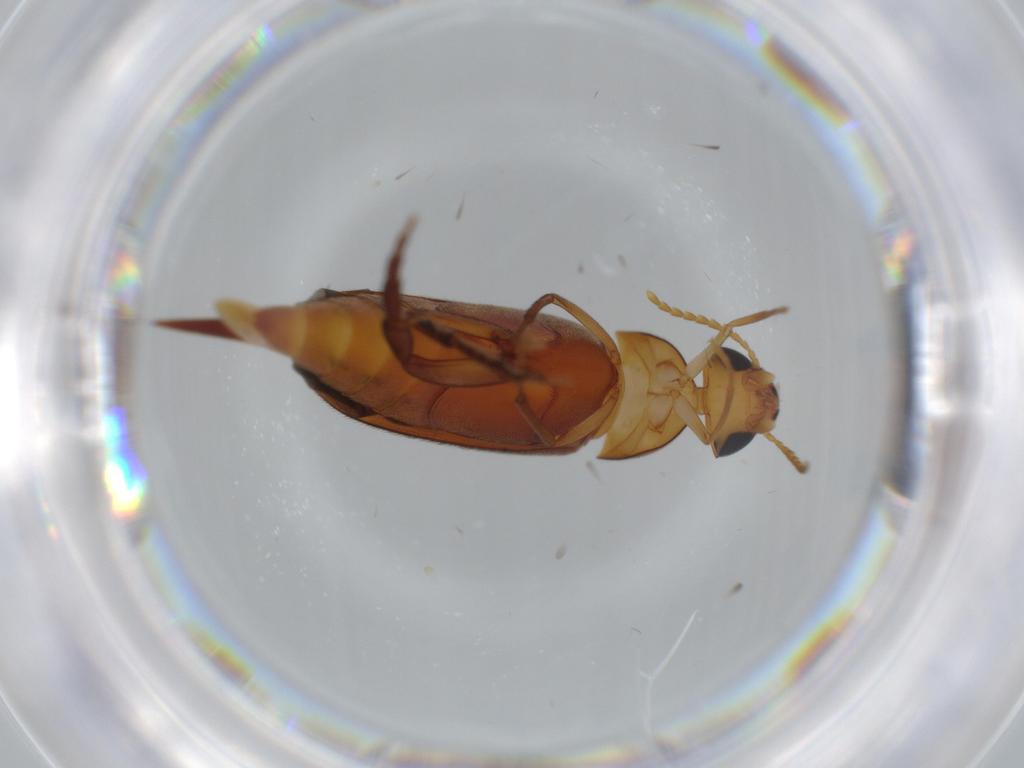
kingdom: Animalia
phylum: Arthropoda
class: Insecta
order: Coleoptera
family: Mordellidae
